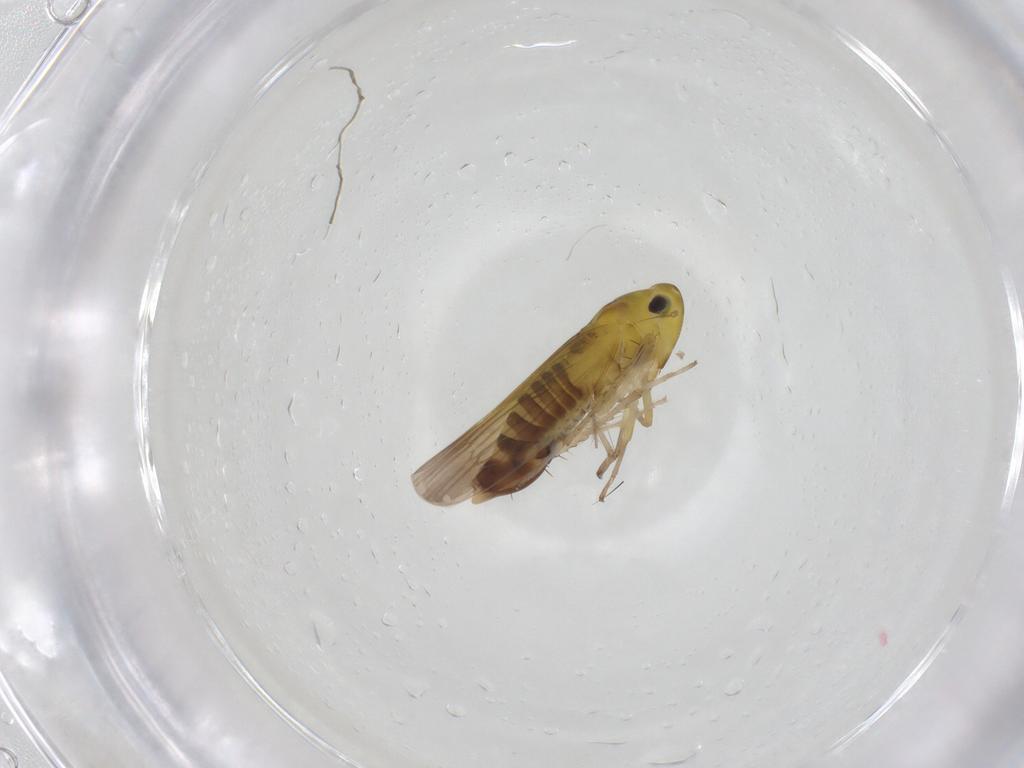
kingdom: Animalia
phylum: Arthropoda
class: Insecta
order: Hemiptera
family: Cicadellidae
